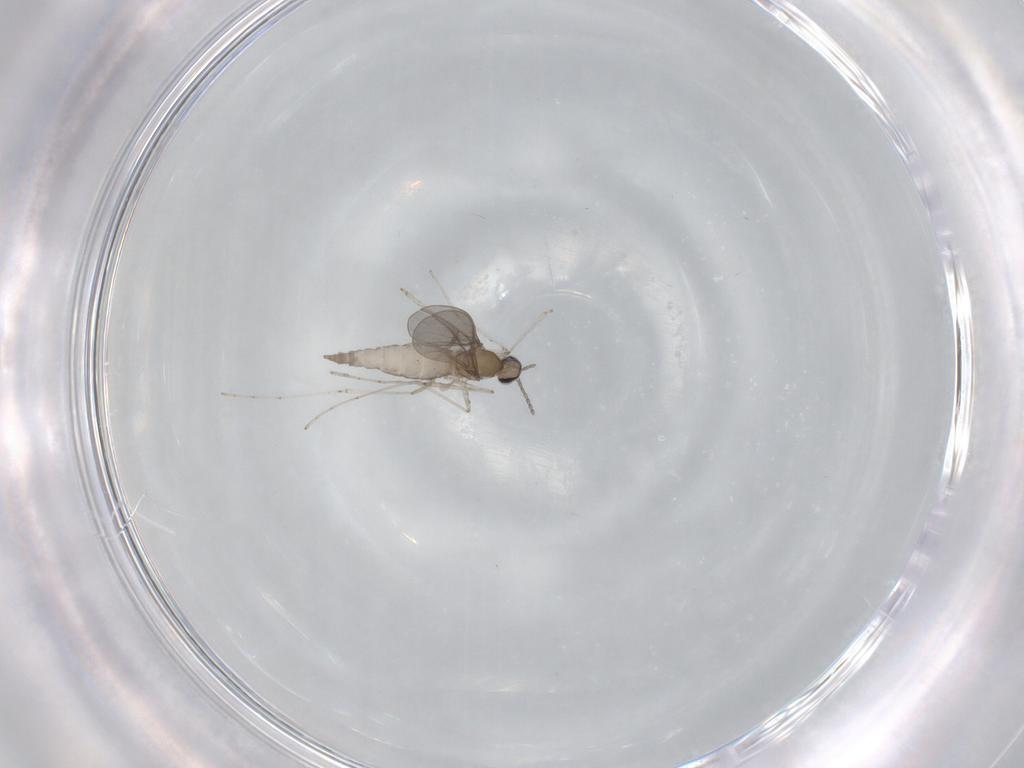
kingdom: Animalia
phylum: Arthropoda
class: Insecta
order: Diptera
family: Cecidomyiidae
